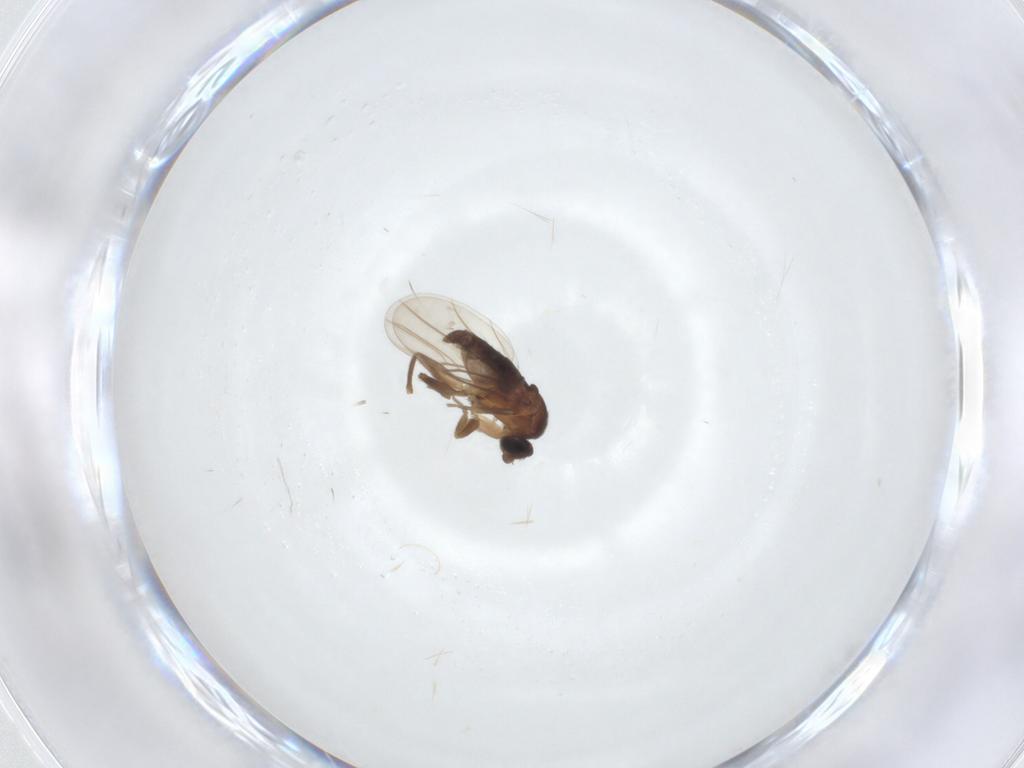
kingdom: Animalia
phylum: Arthropoda
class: Insecta
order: Diptera
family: Phoridae
